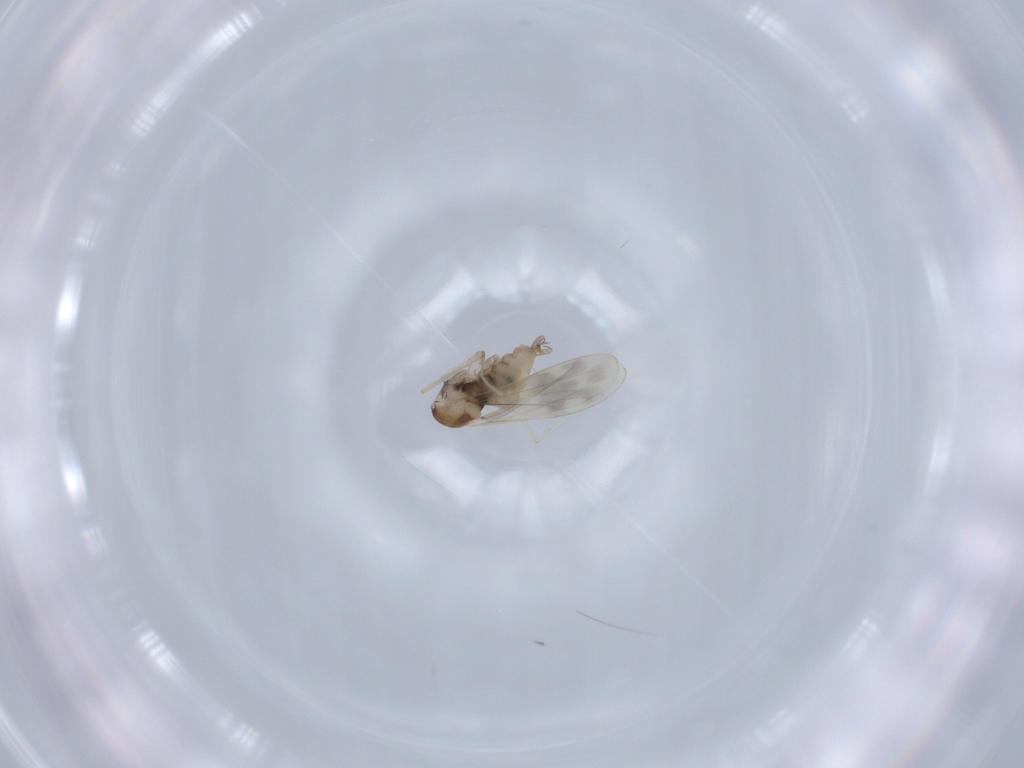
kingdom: Animalia
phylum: Arthropoda
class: Insecta
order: Diptera
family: Cecidomyiidae
